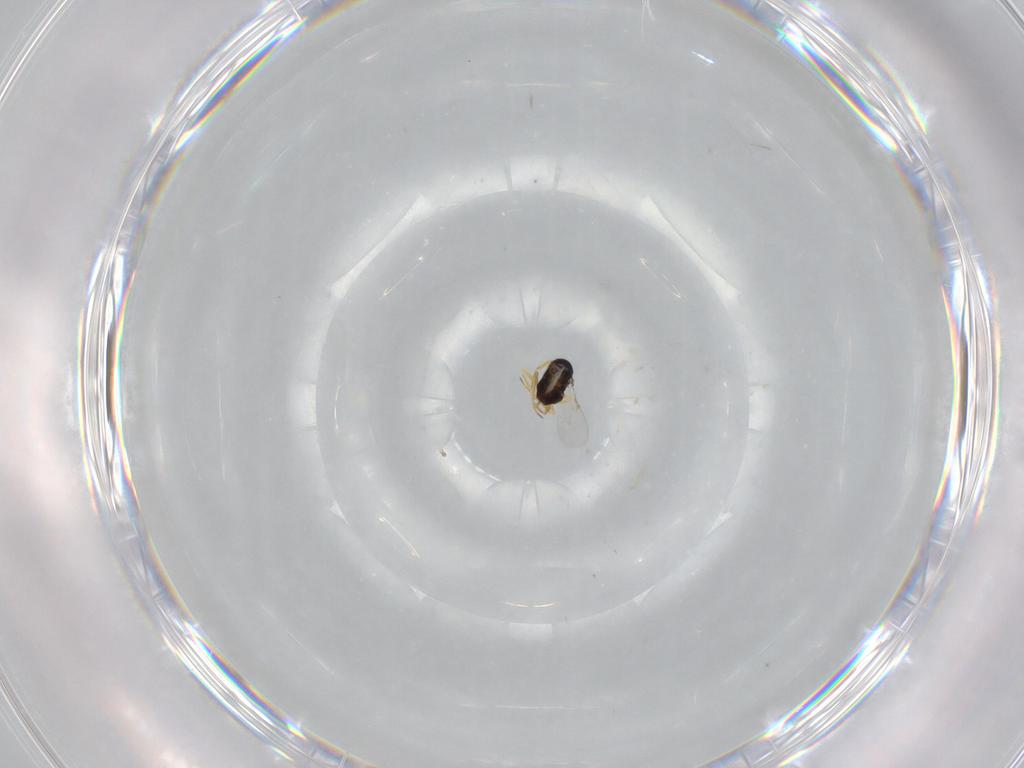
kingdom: Animalia
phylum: Arthropoda
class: Insecta
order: Hymenoptera
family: Encyrtidae
